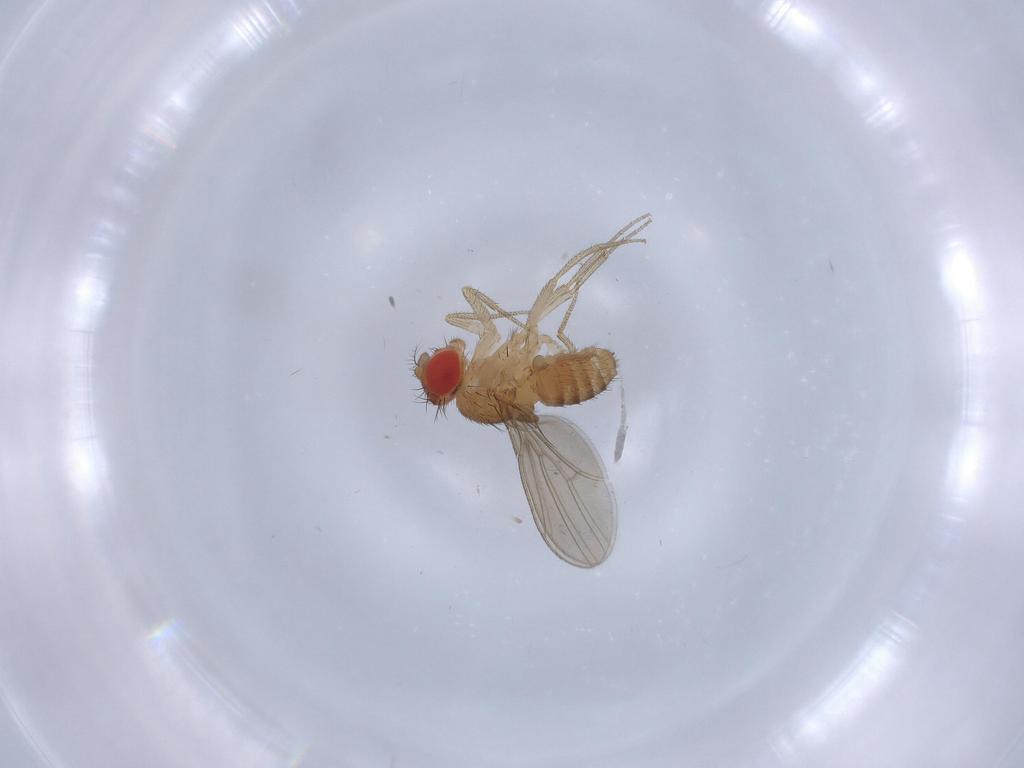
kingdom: Animalia
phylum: Arthropoda
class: Insecta
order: Diptera
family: Drosophilidae
